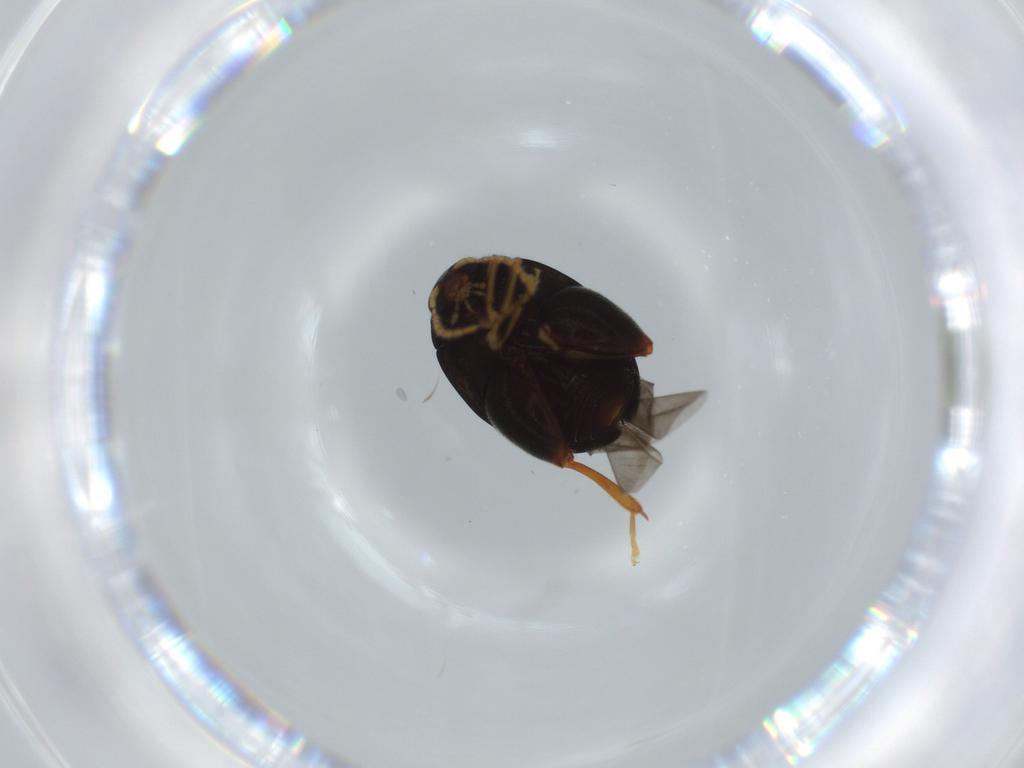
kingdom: Animalia
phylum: Arthropoda
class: Insecta
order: Coleoptera
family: Chrysomelidae
